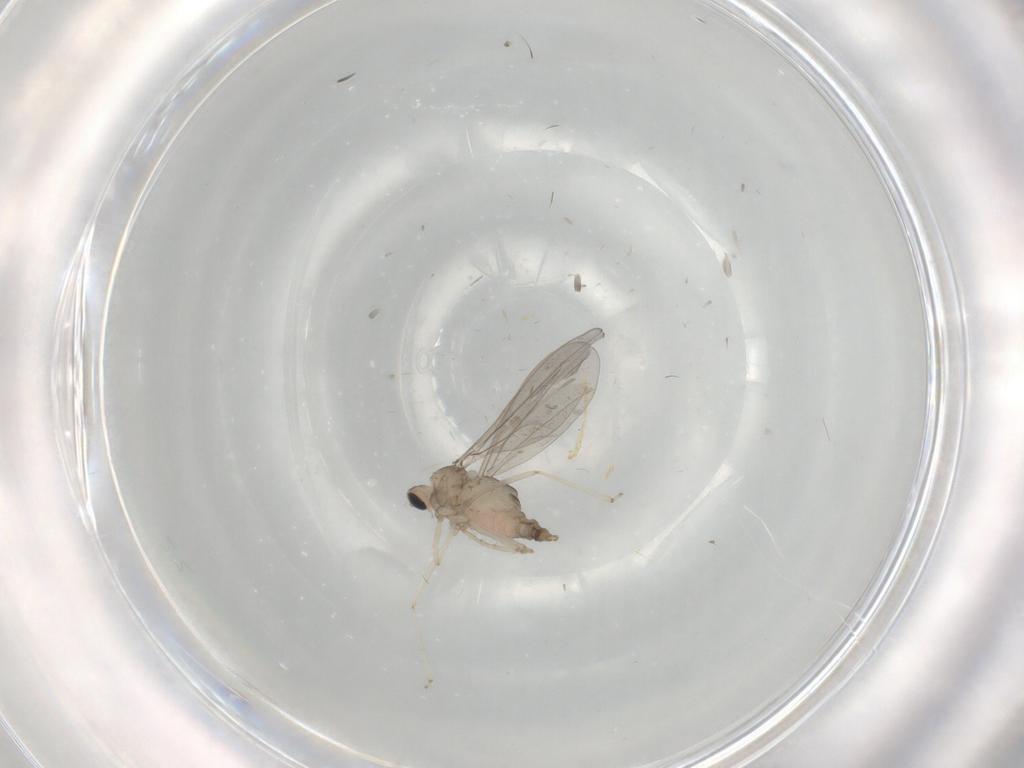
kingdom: Animalia
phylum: Arthropoda
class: Insecta
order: Diptera
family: Cecidomyiidae
